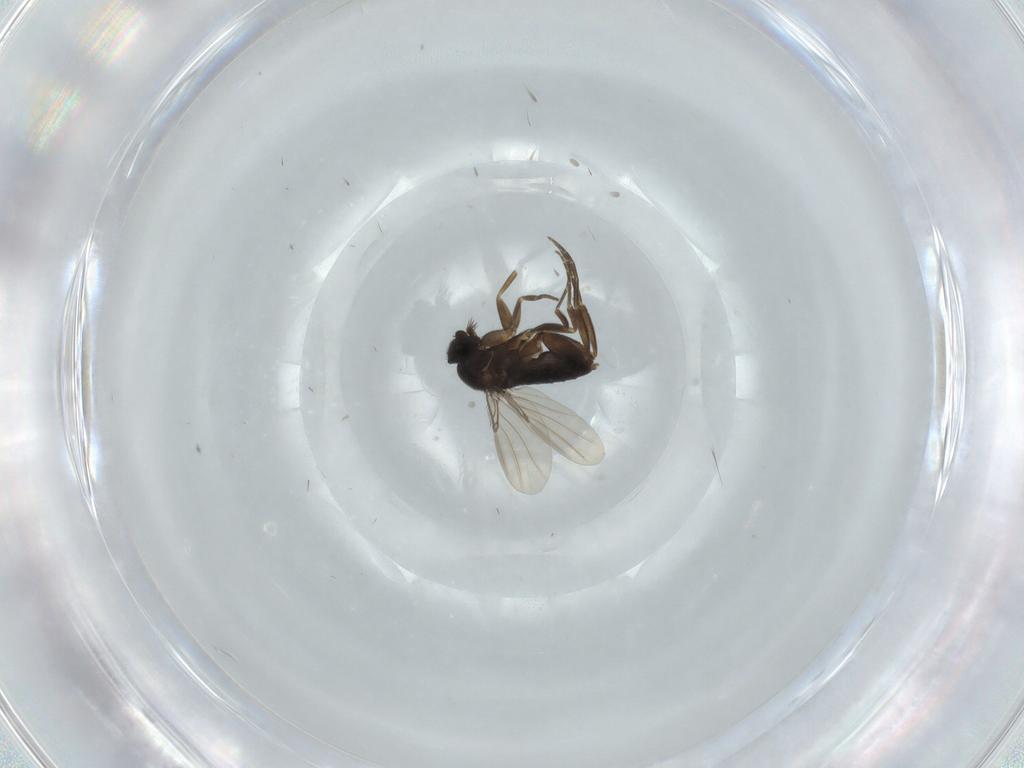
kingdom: Animalia
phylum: Arthropoda
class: Insecta
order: Diptera
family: Phoridae
